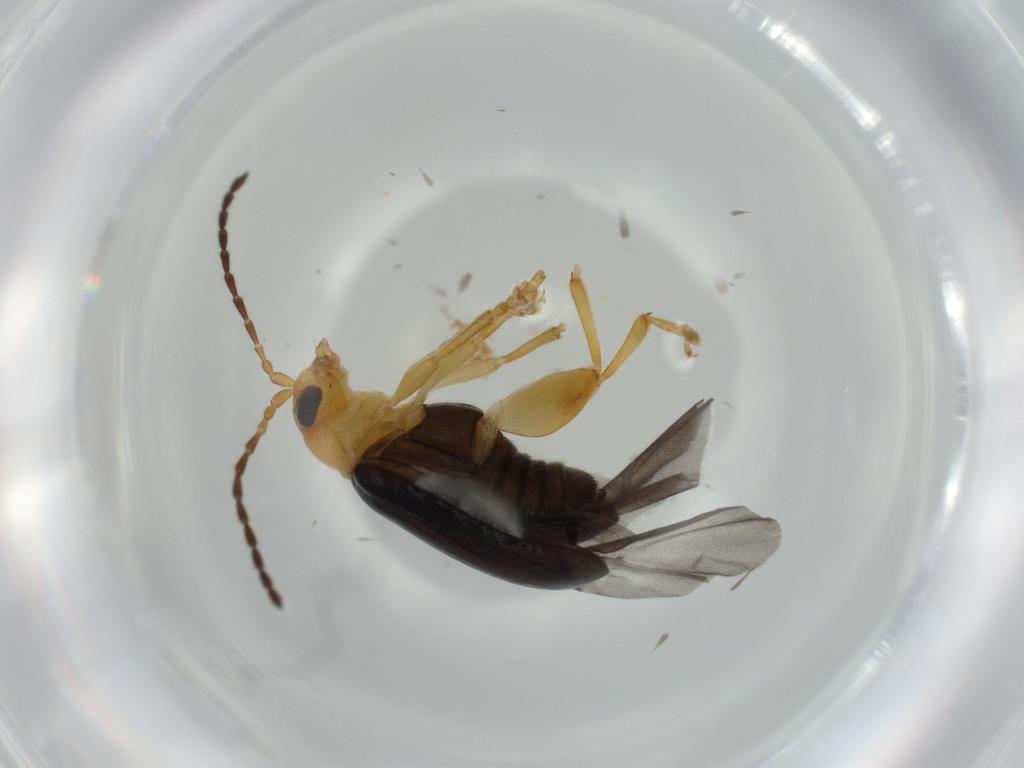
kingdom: Animalia
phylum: Arthropoda
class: Insecta
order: Coleoptera
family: Chrysomelidae
